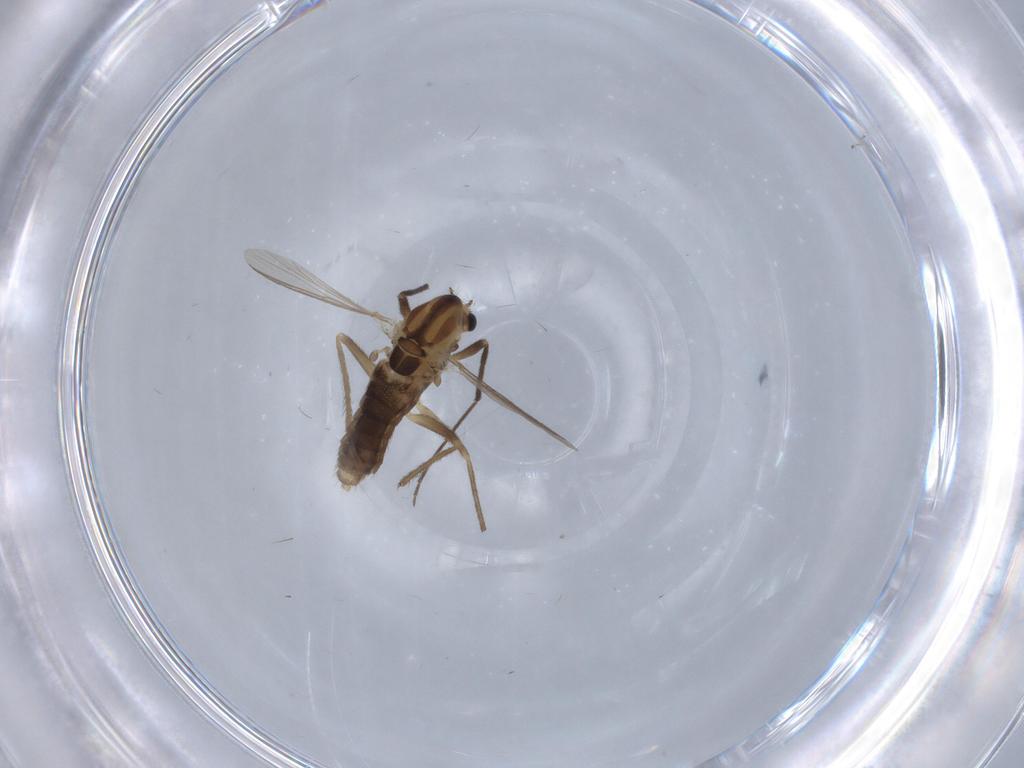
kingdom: Animalia
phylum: Arthropoda
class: Insecta
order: Diptera
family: Chironomidae
